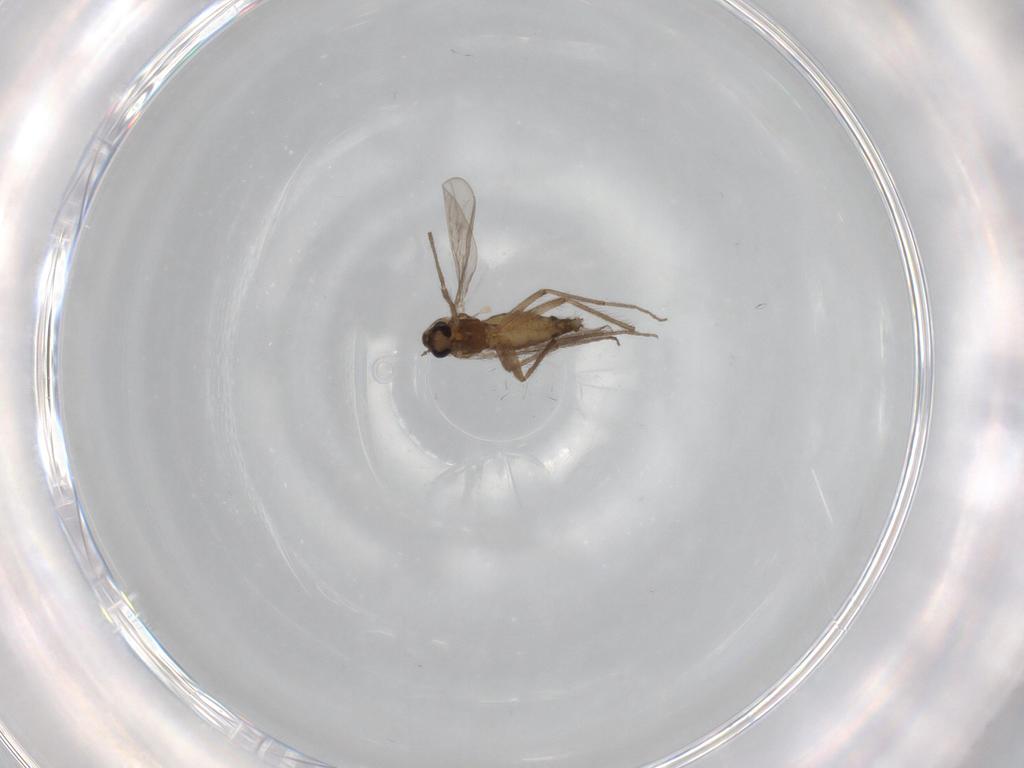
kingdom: Animalia
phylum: Arthropoda
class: Insecta
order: Diptera
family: Chironomidae
